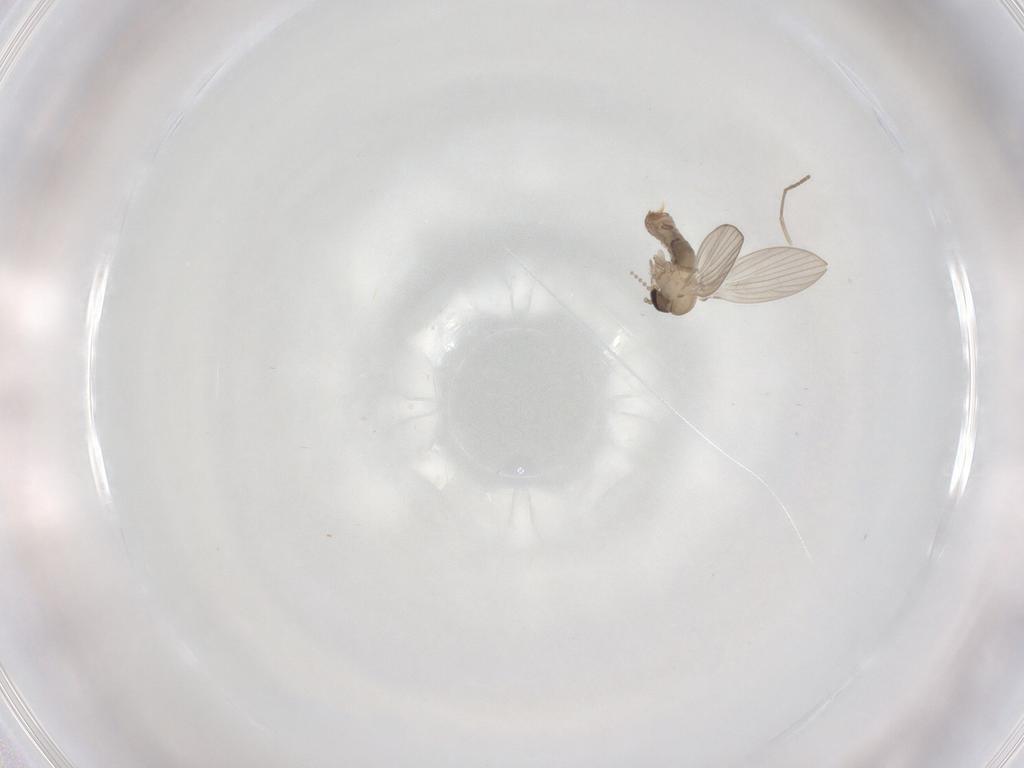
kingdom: Animalia
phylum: Arthropoda
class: Insecta
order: Diptera
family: Psychodidae
